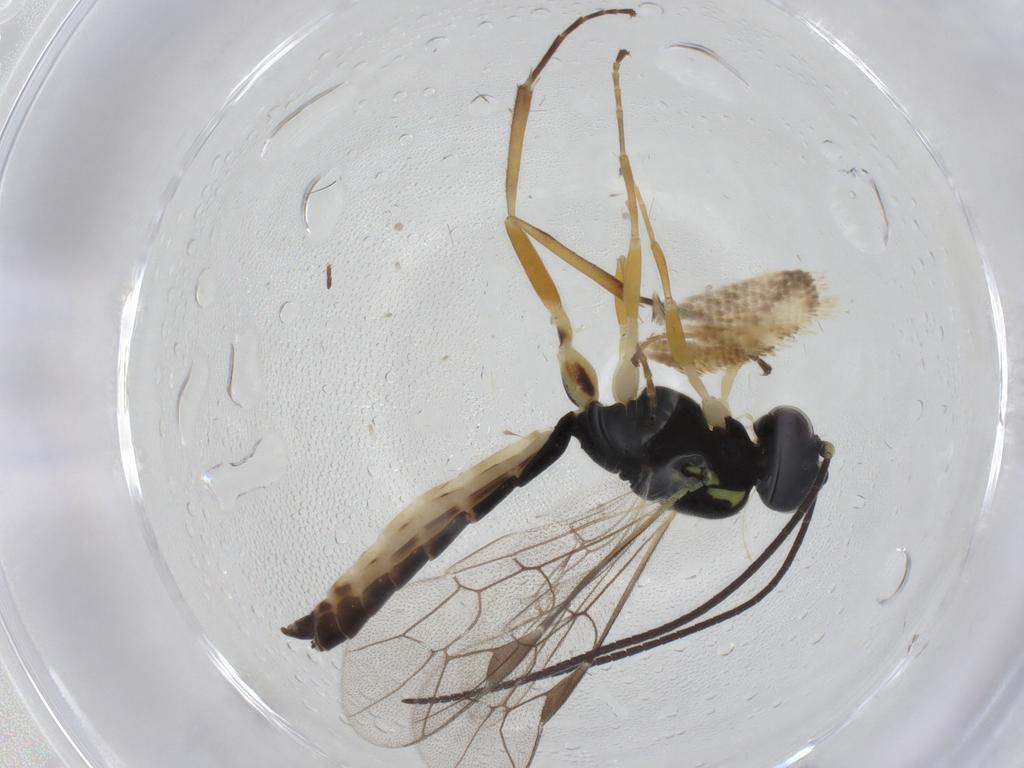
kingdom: Animalia
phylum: Arthropoda
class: Insecta
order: Hymenoptera
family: Ichneumonidae
